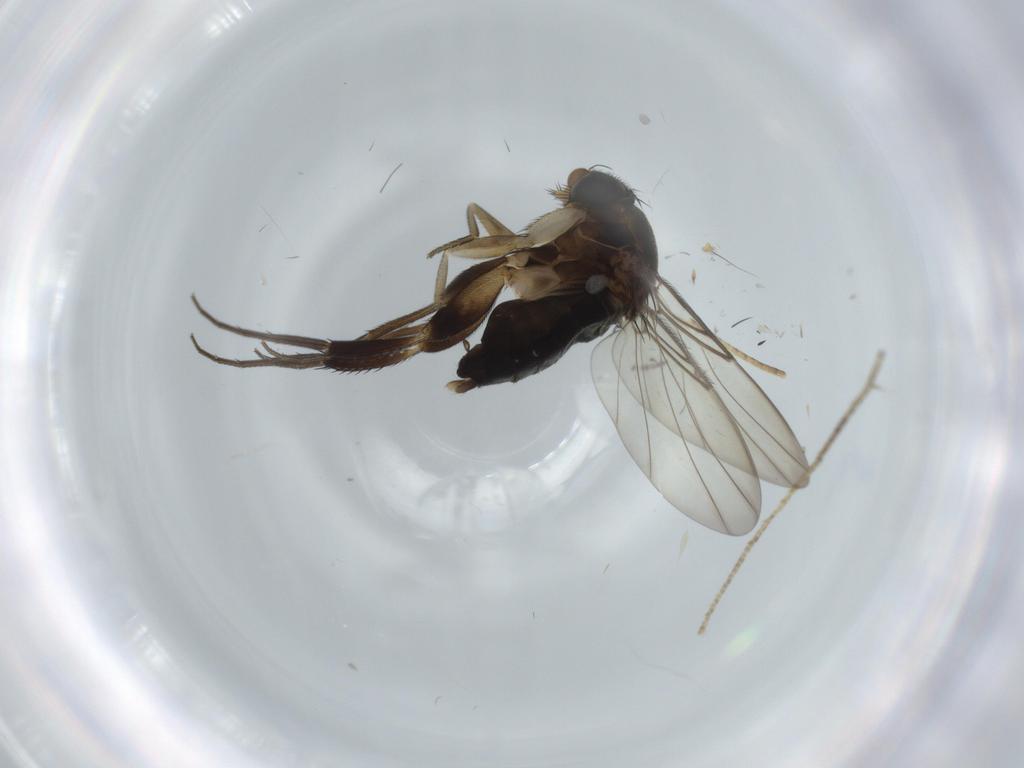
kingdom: Animalia
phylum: Arthropoda
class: Insecta
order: Diptera
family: Phoridae
